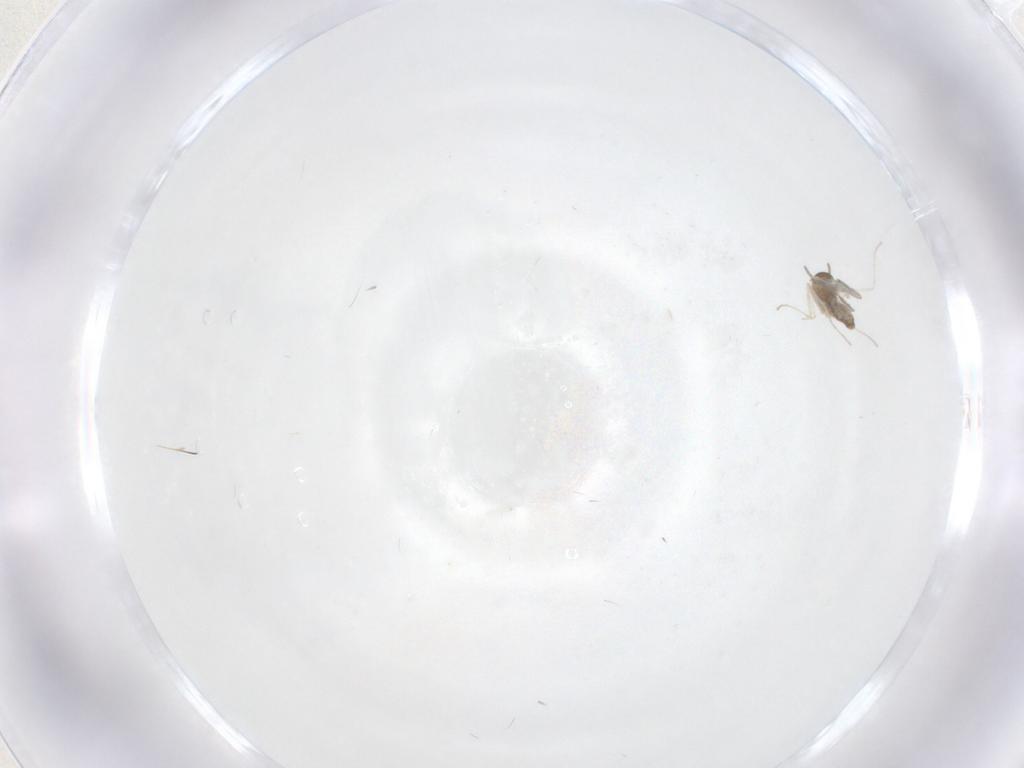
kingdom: Animalia
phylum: Arthropoda
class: Insecta
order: Diptera
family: Cecidomyiidae
